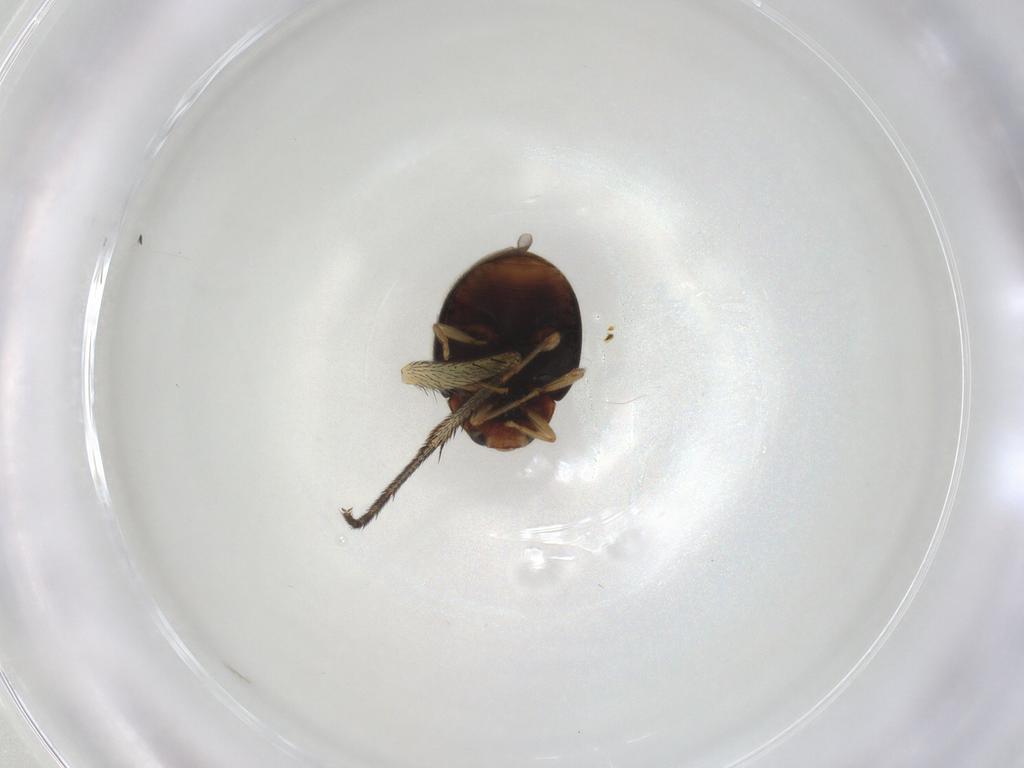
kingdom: Animalia
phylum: Arthropoda
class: Insecta
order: Coleoptera
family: Coccinellidae
